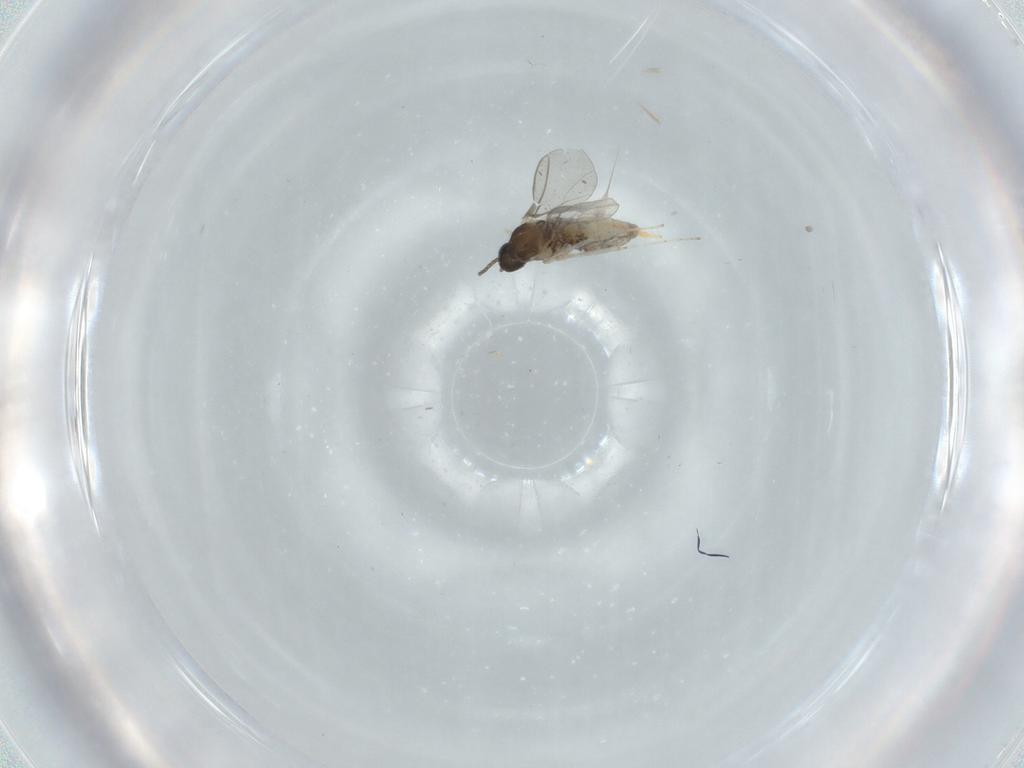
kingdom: Animalia
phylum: Arthropoda
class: Insecta
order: Diptera
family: Cecidomyiidae
